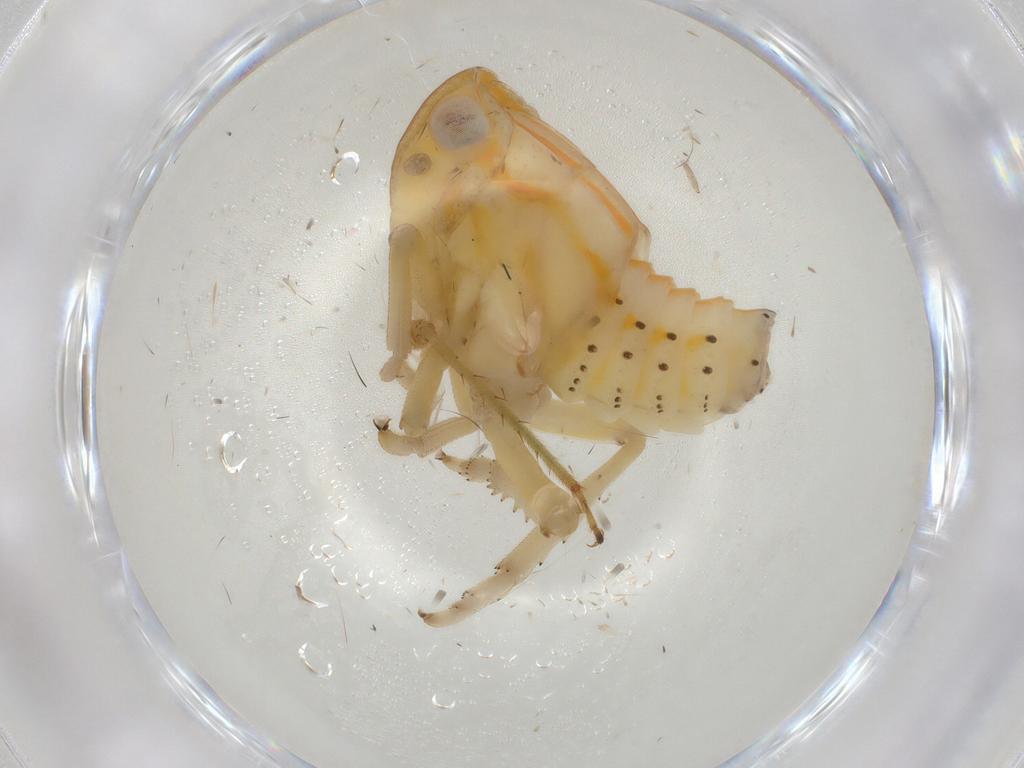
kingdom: Animalia
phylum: Arthropoda
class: Insecta
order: Hemiptera
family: Tropiduchidae
